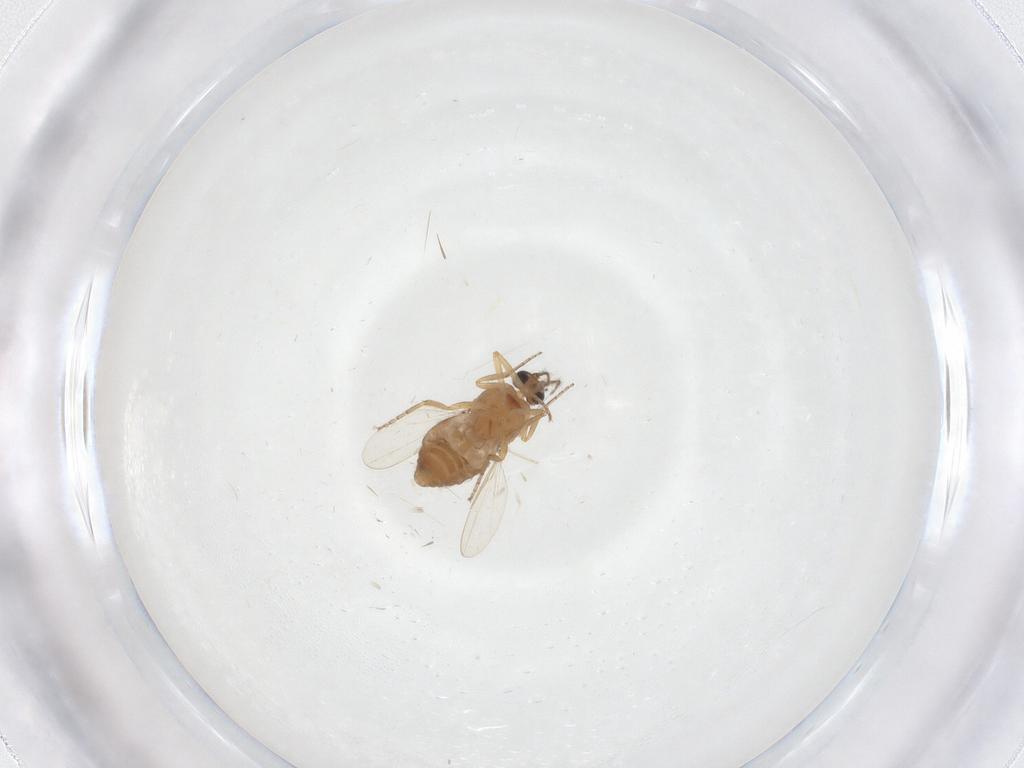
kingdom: Animalia
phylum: Arthropoda
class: Insecta
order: Diptera
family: Ceratopogonidae
